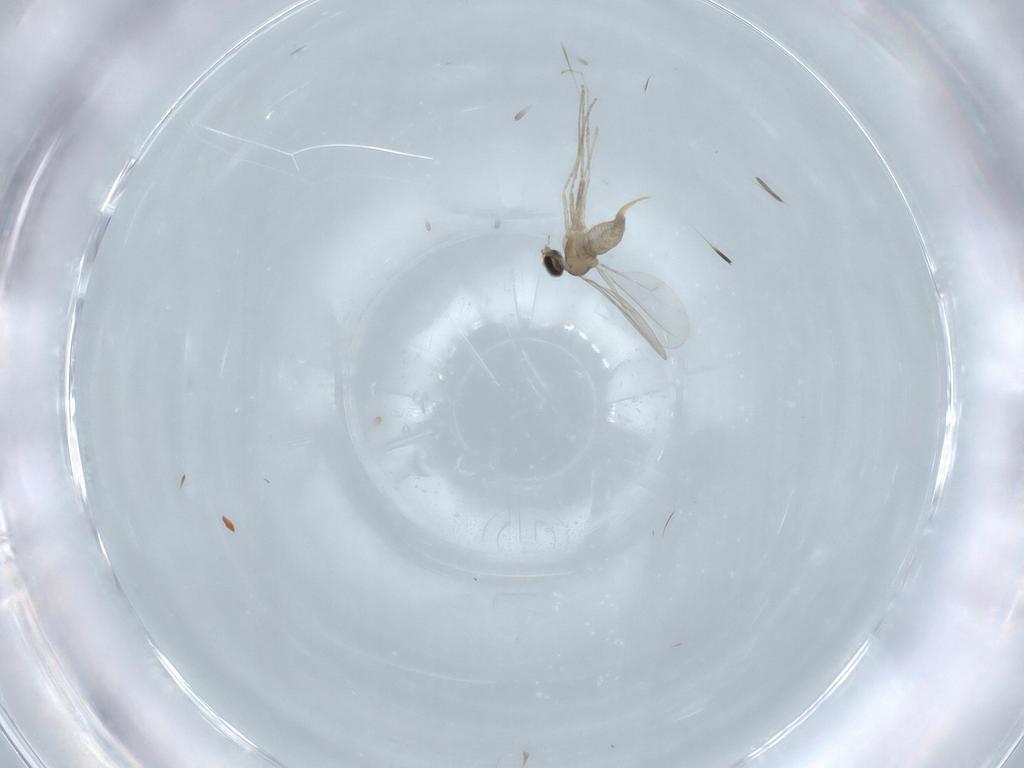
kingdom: Animalia
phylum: Arthropoda
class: Insecta
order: Diptera
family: Cecidomyiidae
